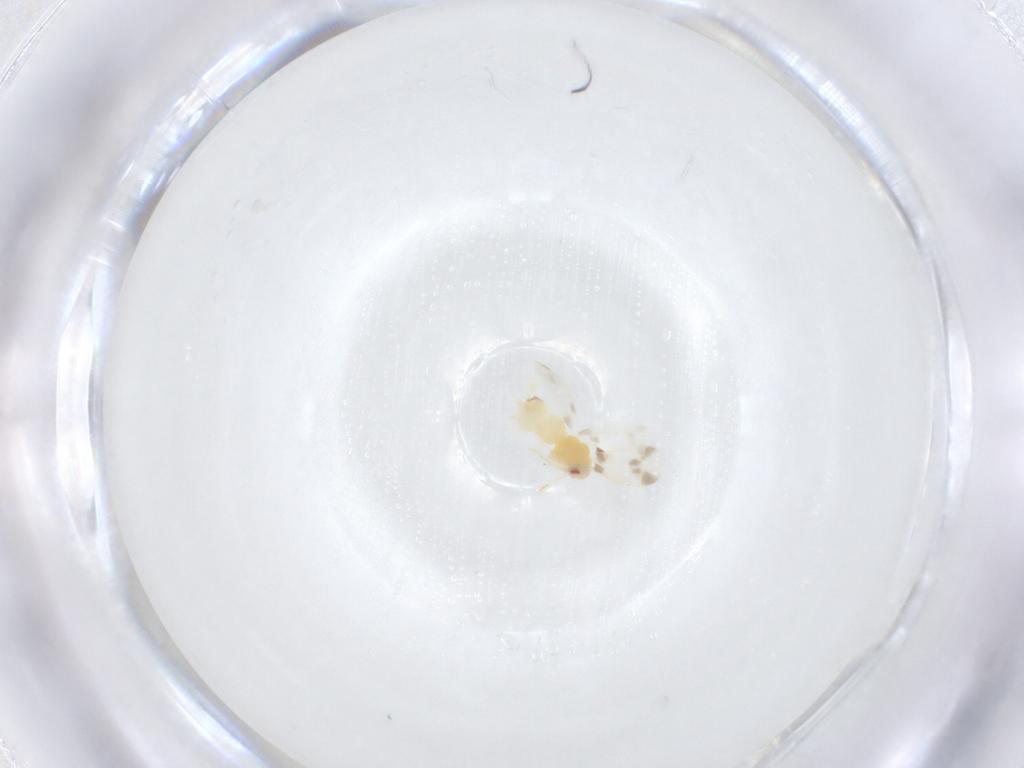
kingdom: Animalia
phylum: Arthropoda
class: Insecta
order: Hemiptera
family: Aleyrodidae
